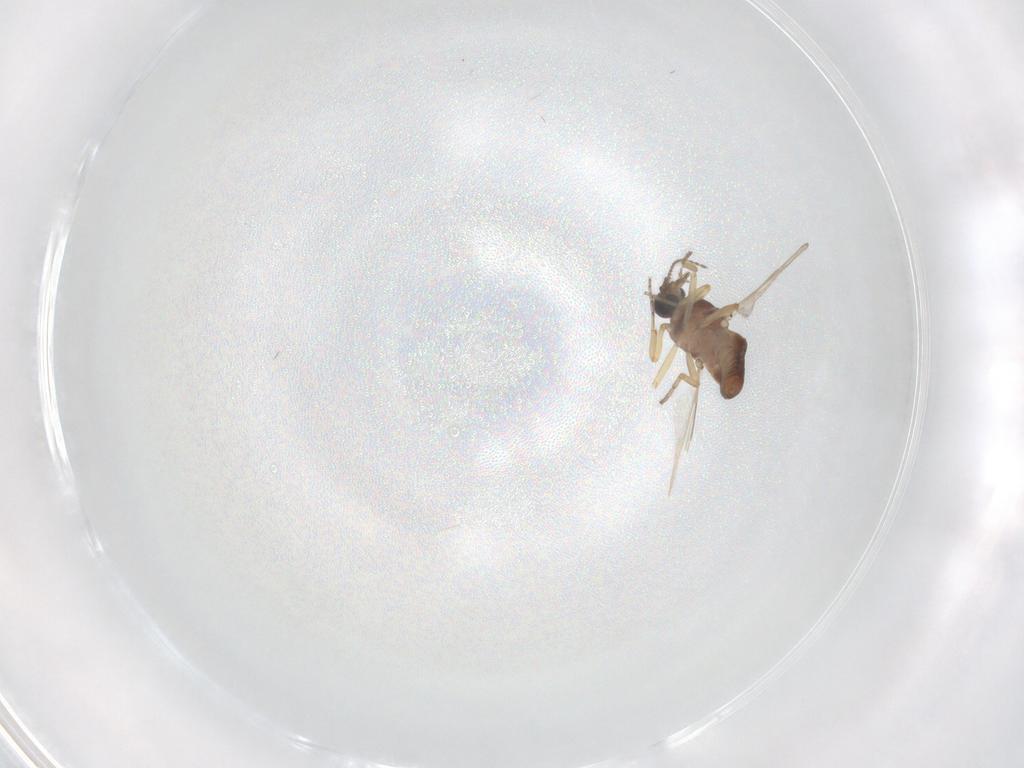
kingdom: Animalia
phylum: Arthropoda
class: Insecta
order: Diptera
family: Ceratopogonidae
